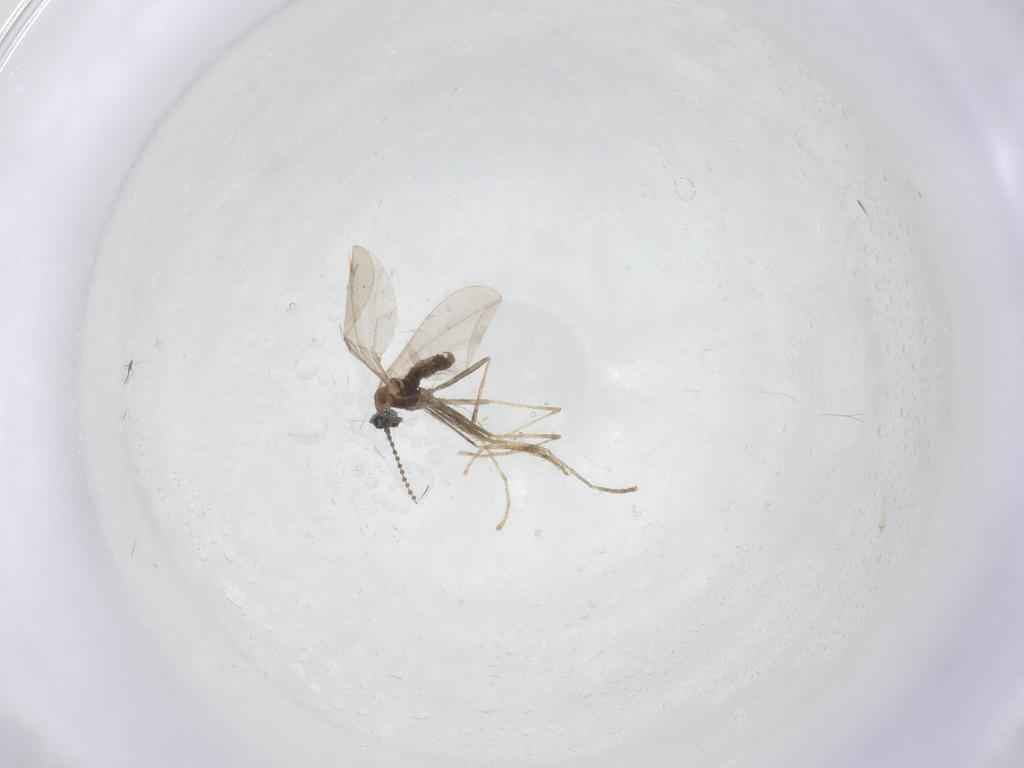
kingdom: Animalia
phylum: Arthropoda
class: Insecta
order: Diptera
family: Cecidomyiidae
